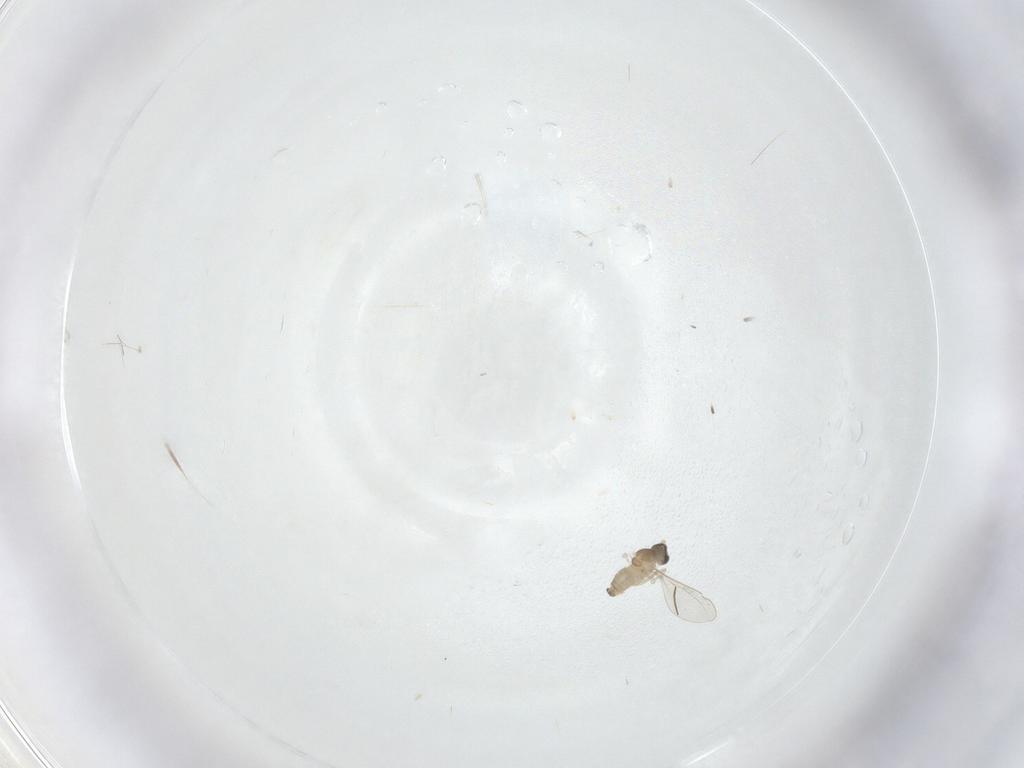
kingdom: Animalia
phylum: Arthropoda
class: Insecta
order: Diptera
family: Cecidomyiidae
